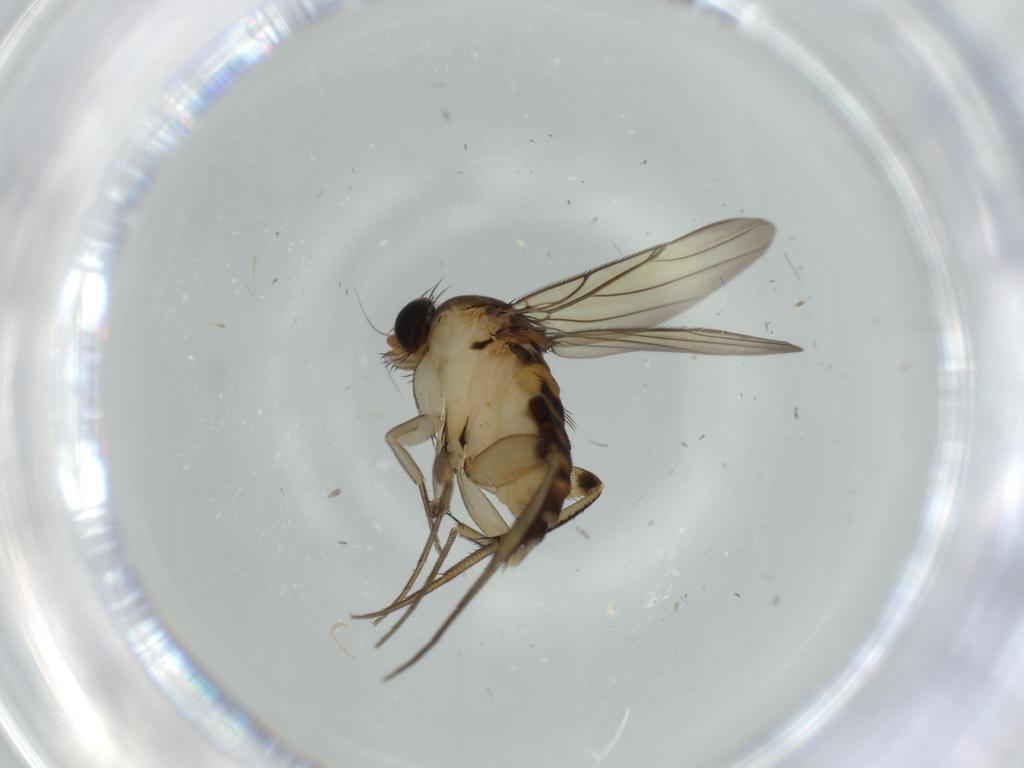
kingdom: Animalia
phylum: Arthropoda
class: Insecta
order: Diptera
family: Phoridae
